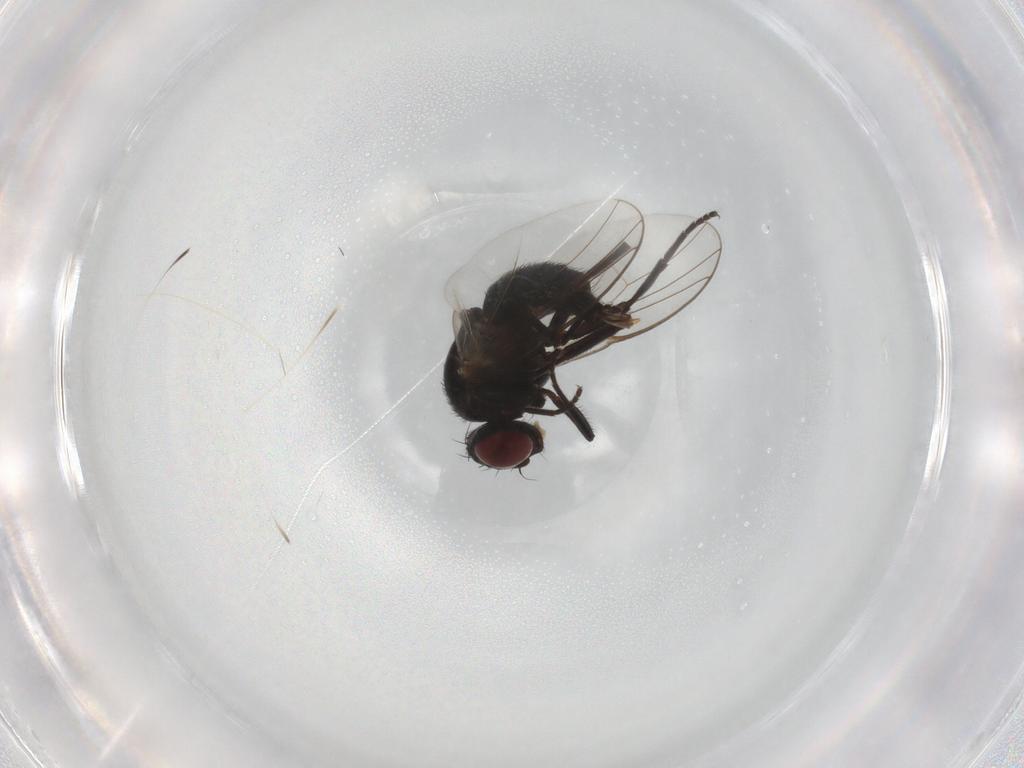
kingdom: Animalia
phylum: Arthropoda
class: Insecta
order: Diptera
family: Agromyzidae
